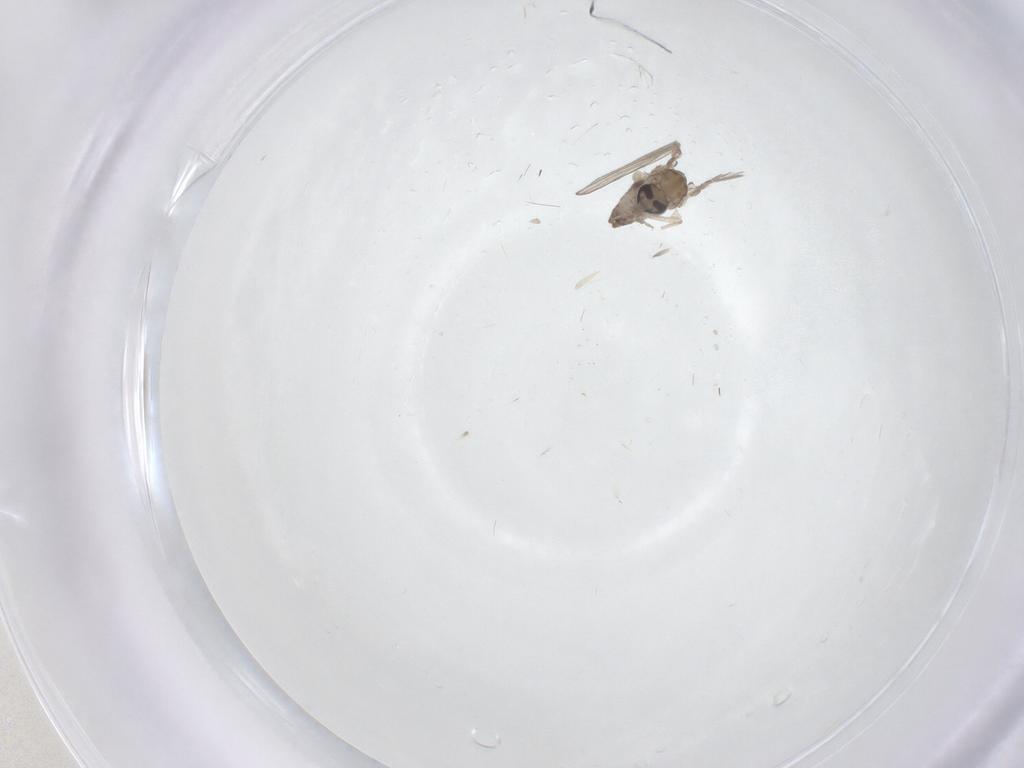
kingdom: Animalia
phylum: Arthropoda
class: Insecta
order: Diptera
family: Psychodidae
